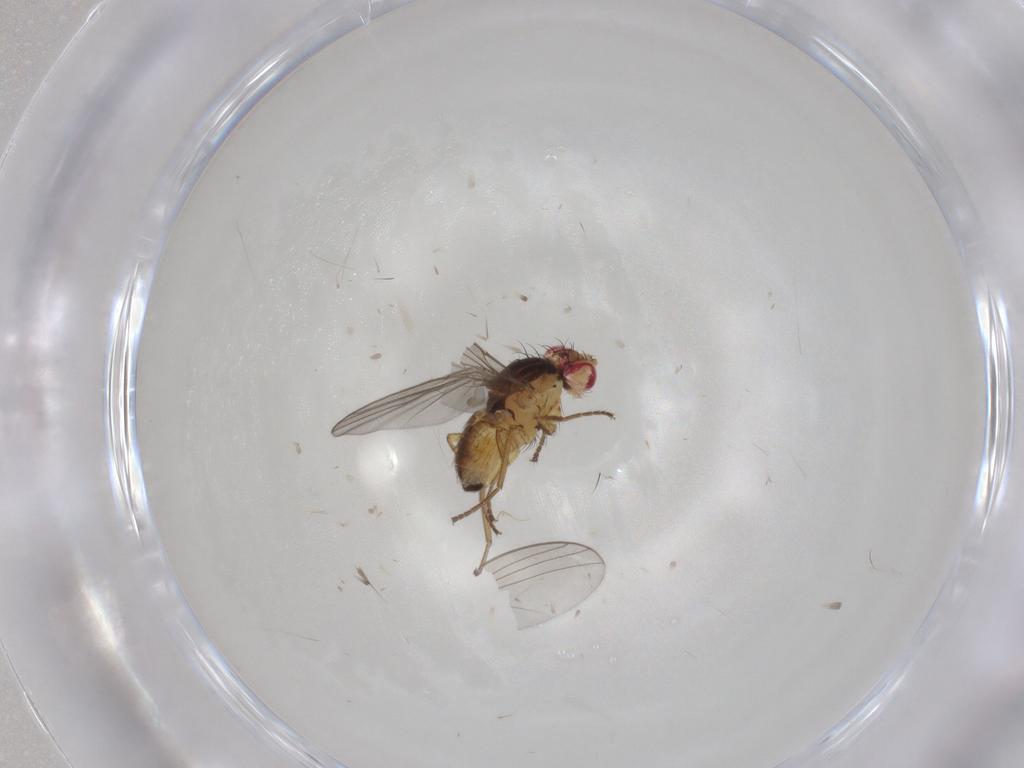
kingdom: Animalia
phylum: Arthropoda
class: Insecta
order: Diptera
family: Agromyzidae
